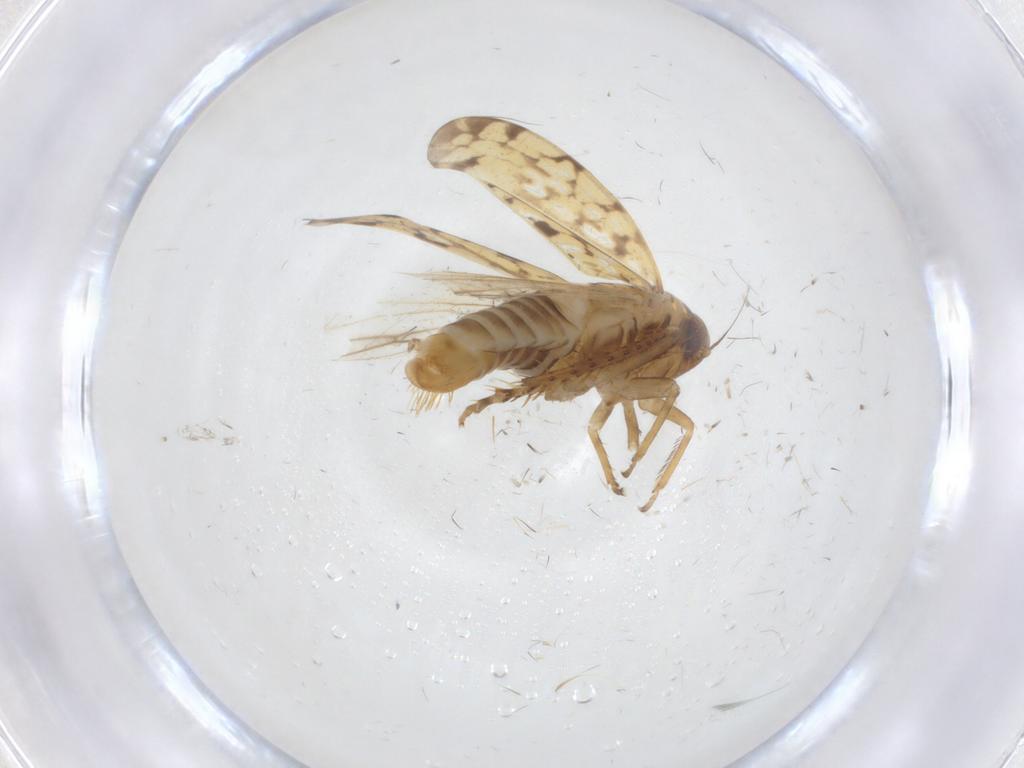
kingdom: Animalia
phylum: Arthropoda
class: Insecta
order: Hemiptera
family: Cicadellidae
